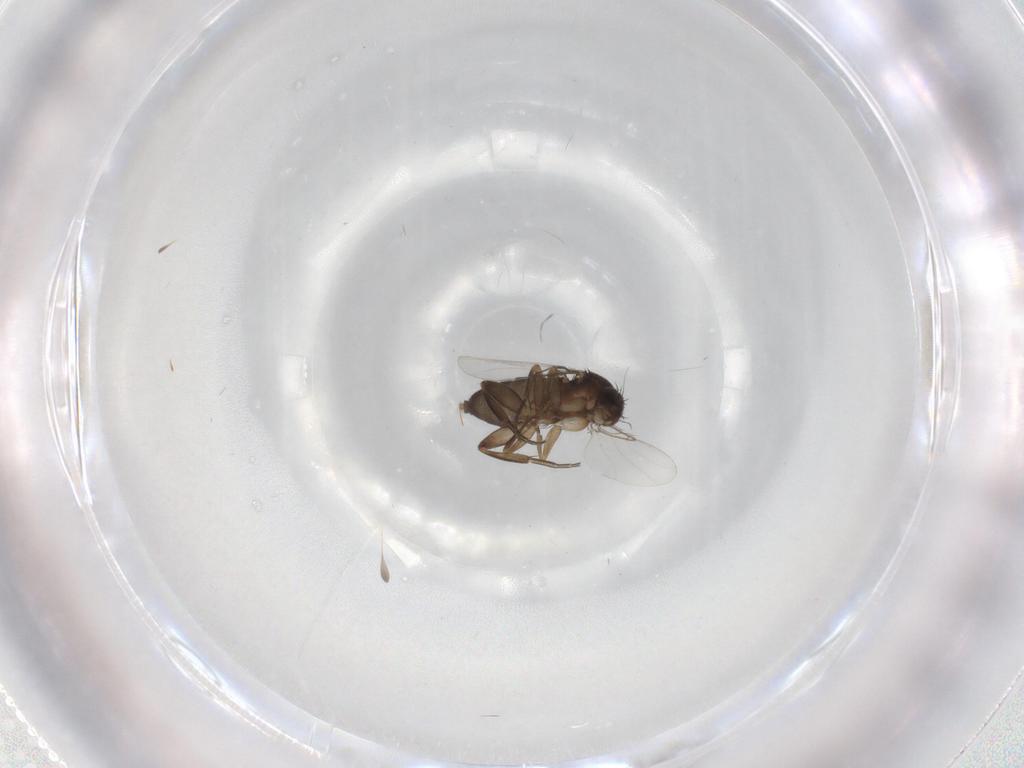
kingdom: Animalia
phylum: Arthropoda
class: Insecta
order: Diptera
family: Phoridae
